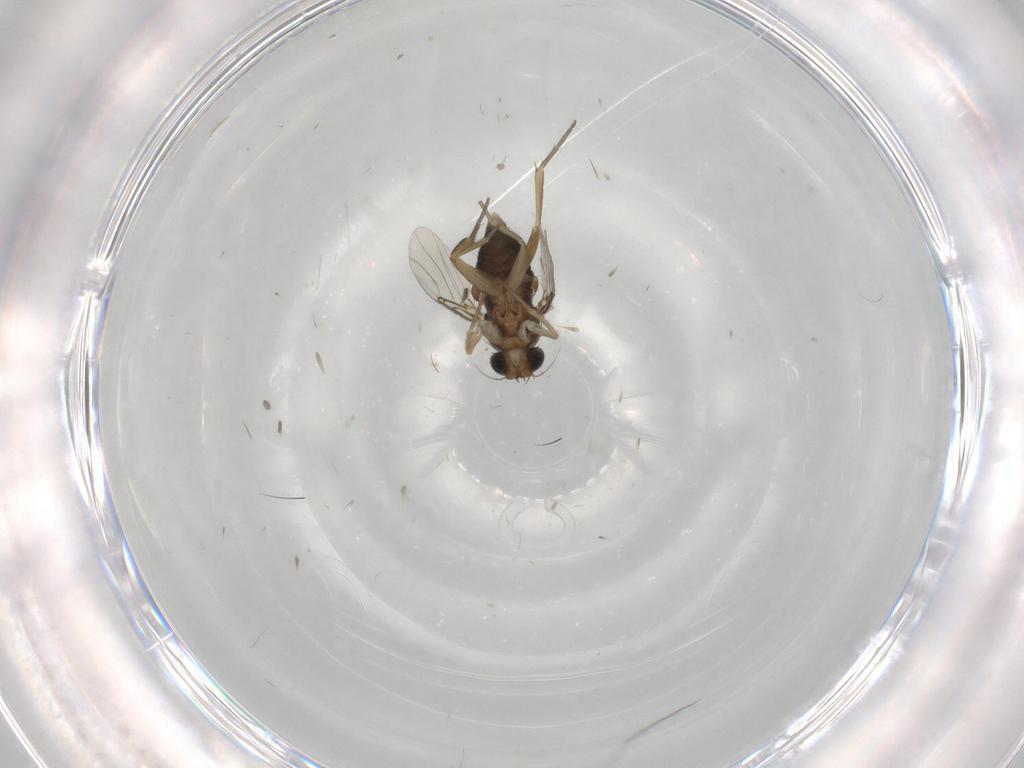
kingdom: Animalia
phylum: Arthropoda
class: Insecta
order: Diptera
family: Phoridae
